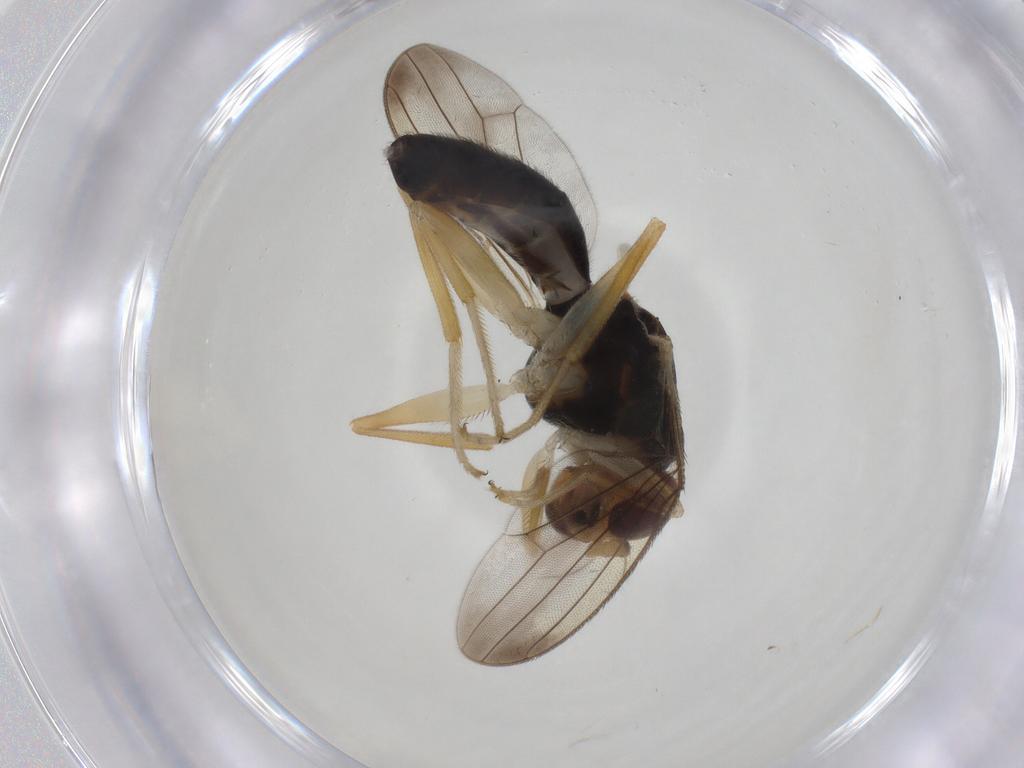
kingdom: Animalia
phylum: Arthropoda
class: Insecta
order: Diptera
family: Psilidae
